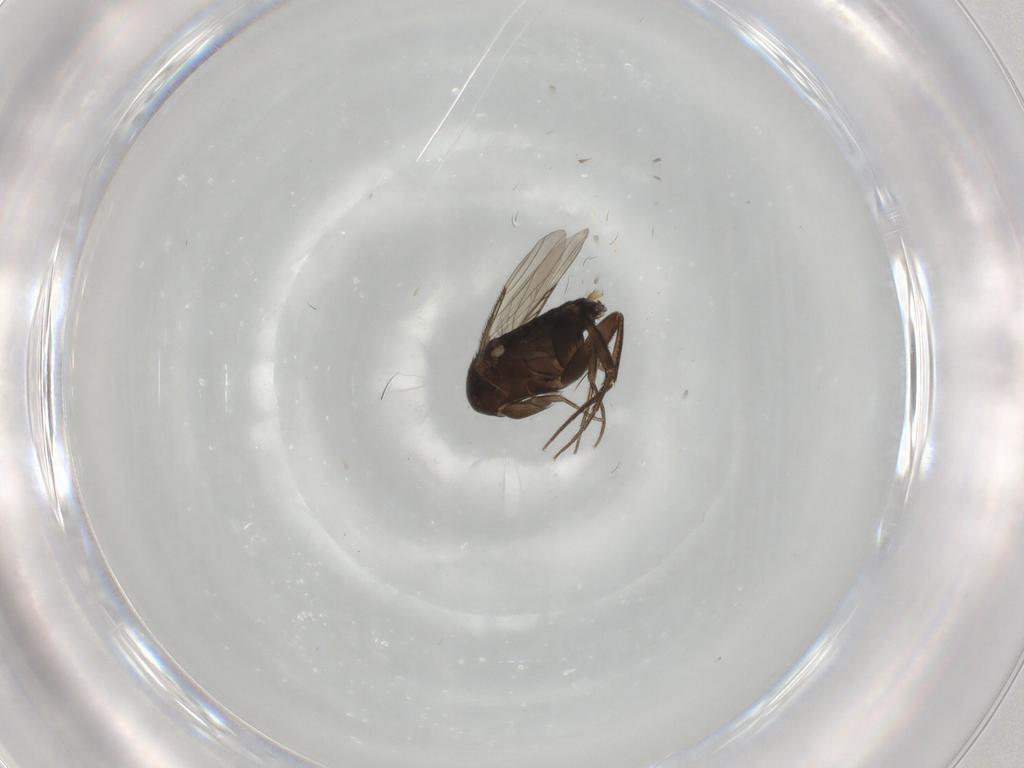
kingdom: Animalia
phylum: Arthropoda
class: Insecta
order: Diptera
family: Phoridae
